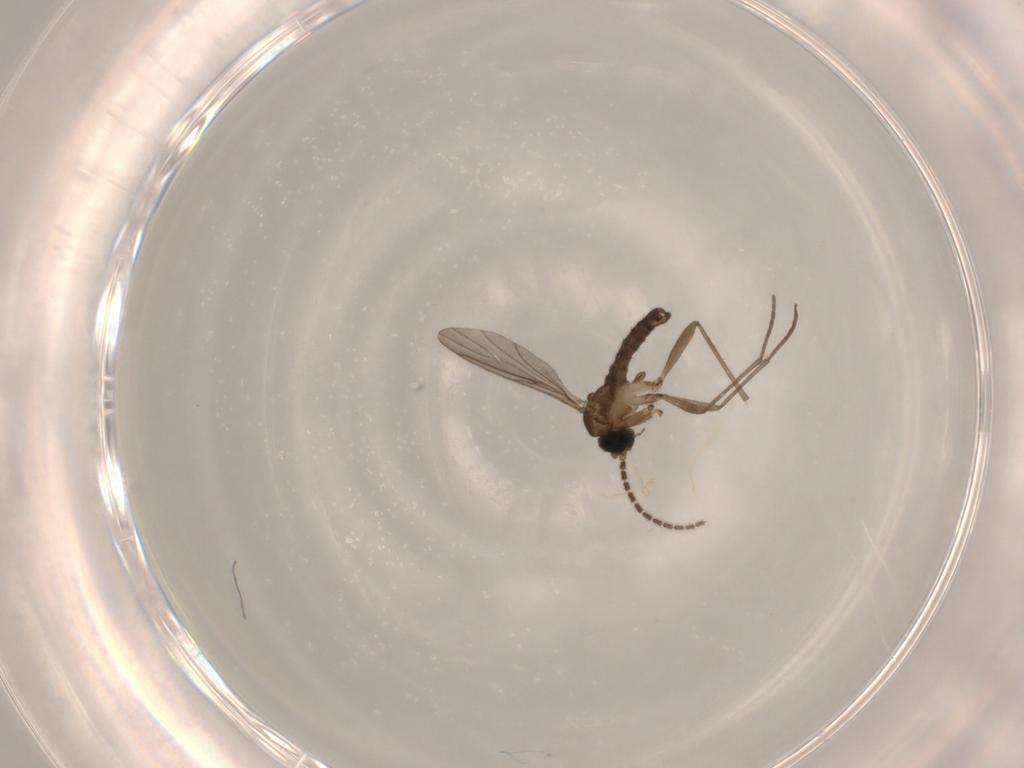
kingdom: Animalia
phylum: Arthropoda
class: Insecta
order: Diptera
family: Sciaridae
